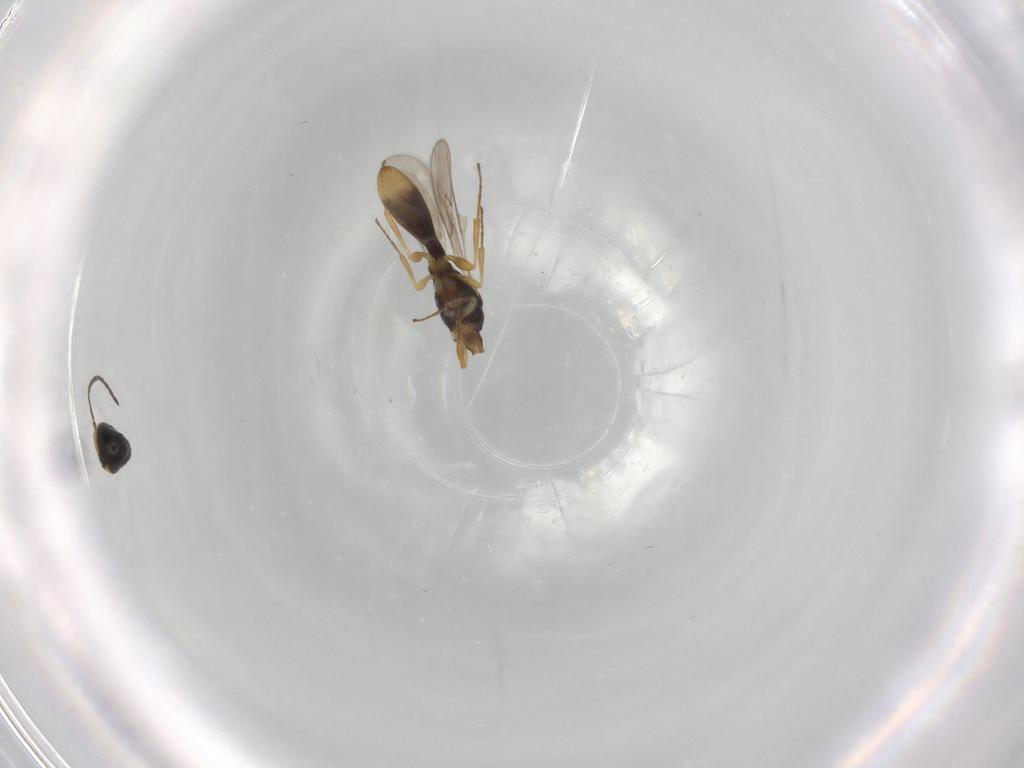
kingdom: Animalia
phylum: Arthropoda
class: Insecta
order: Hymenoptera
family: Scelionidae
